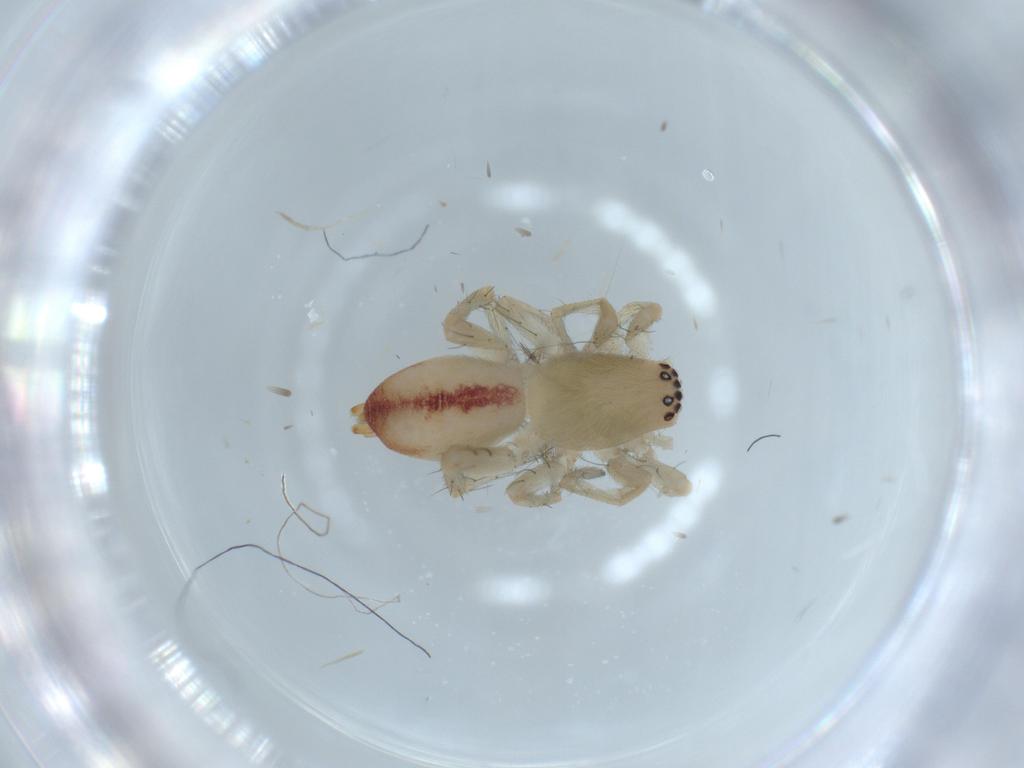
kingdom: Animalia
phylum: Arthropoda
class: Arachnida
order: Araneae
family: Clubionidae
